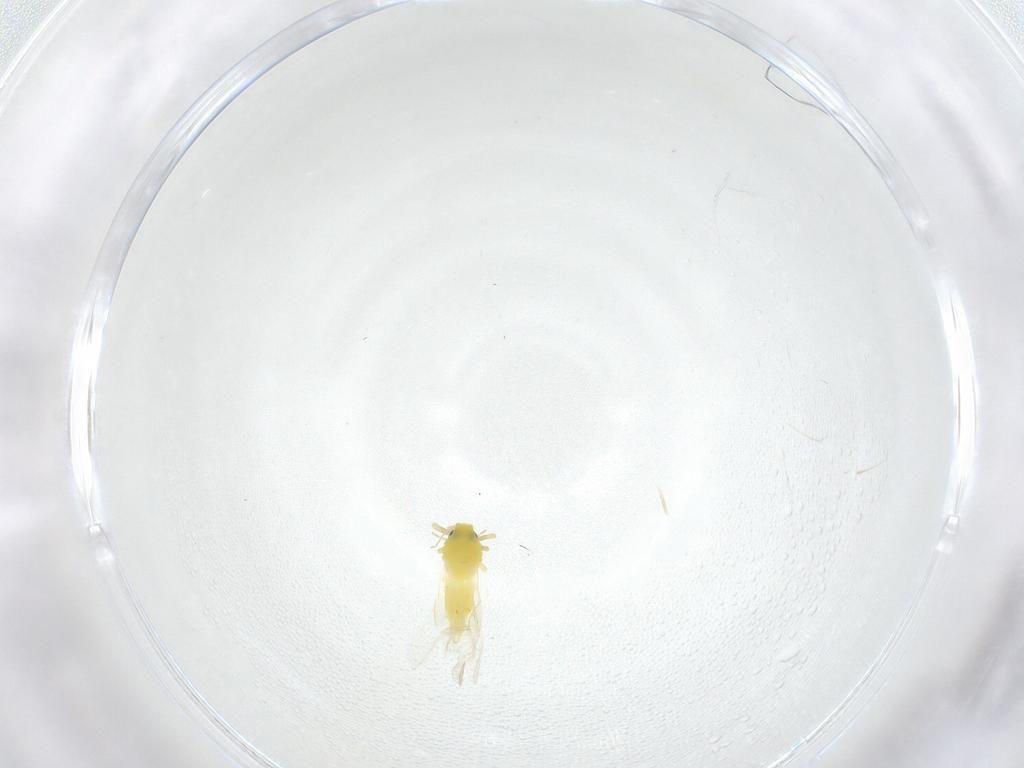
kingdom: Animalia
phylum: Arthropoda
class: Insecta
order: Hemiptera
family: Aleyrodidae
